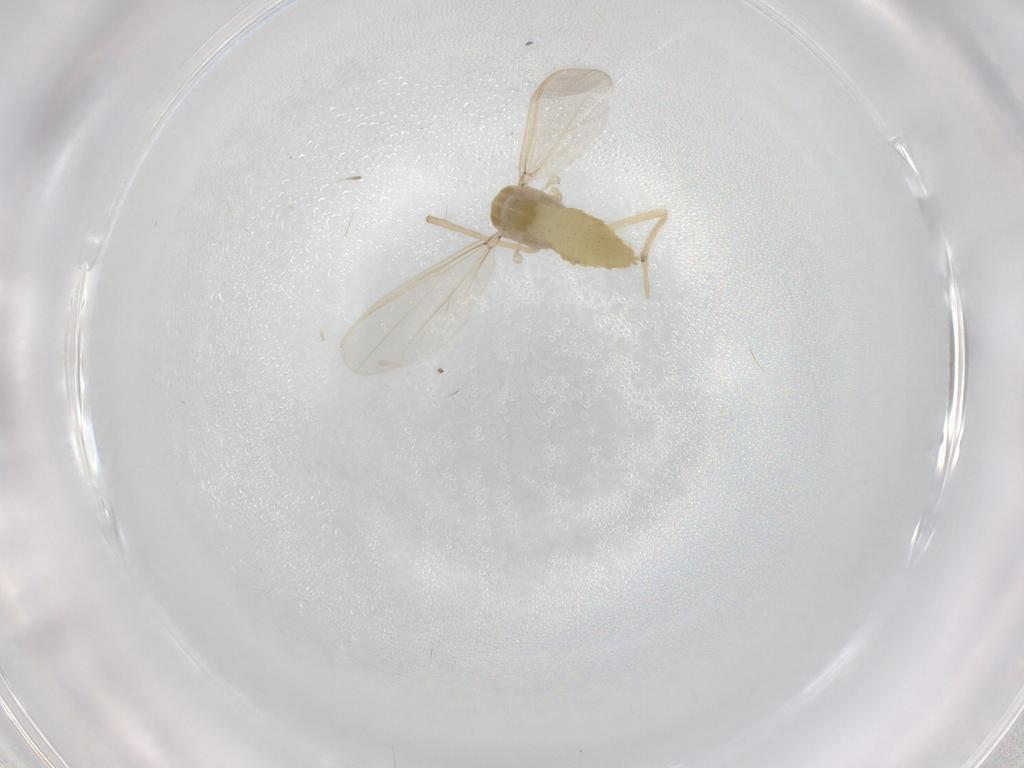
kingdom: Animalia
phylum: Arthropoda
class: Insecta
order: Diptera
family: Chironomidae
